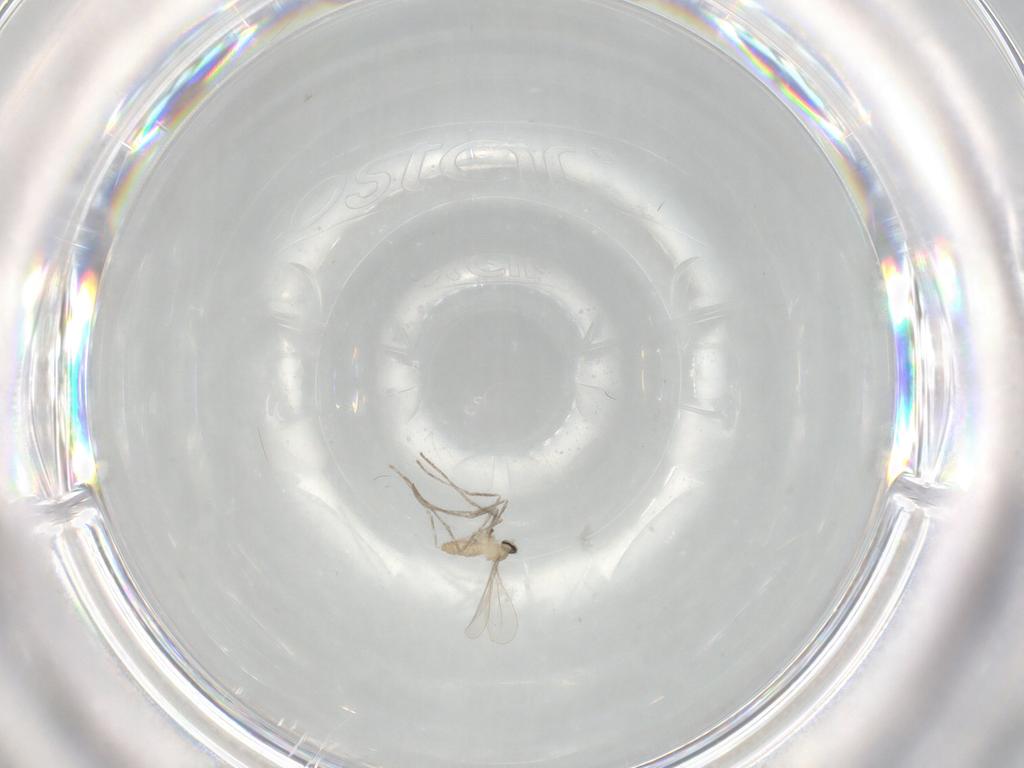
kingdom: Animalia
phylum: Arthropoda
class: Insecta
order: Diptera
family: Cecidomyiidae
